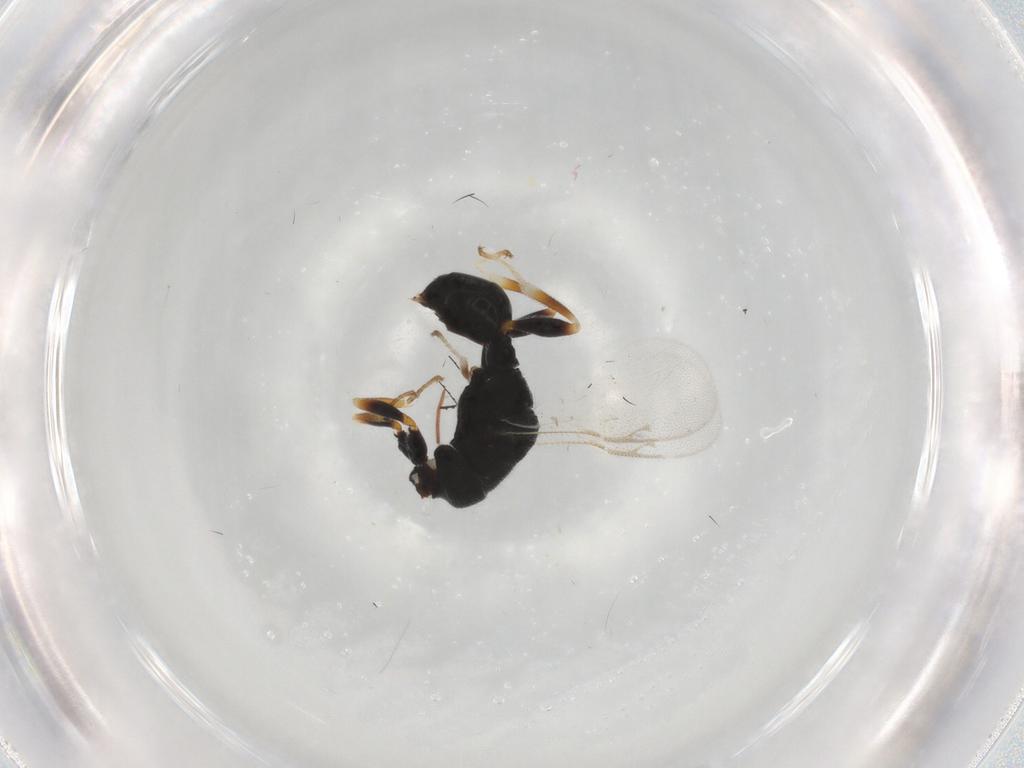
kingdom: Animalia
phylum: Arthropoda
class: Insecta
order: Hymenoptera
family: Eurytomidae
